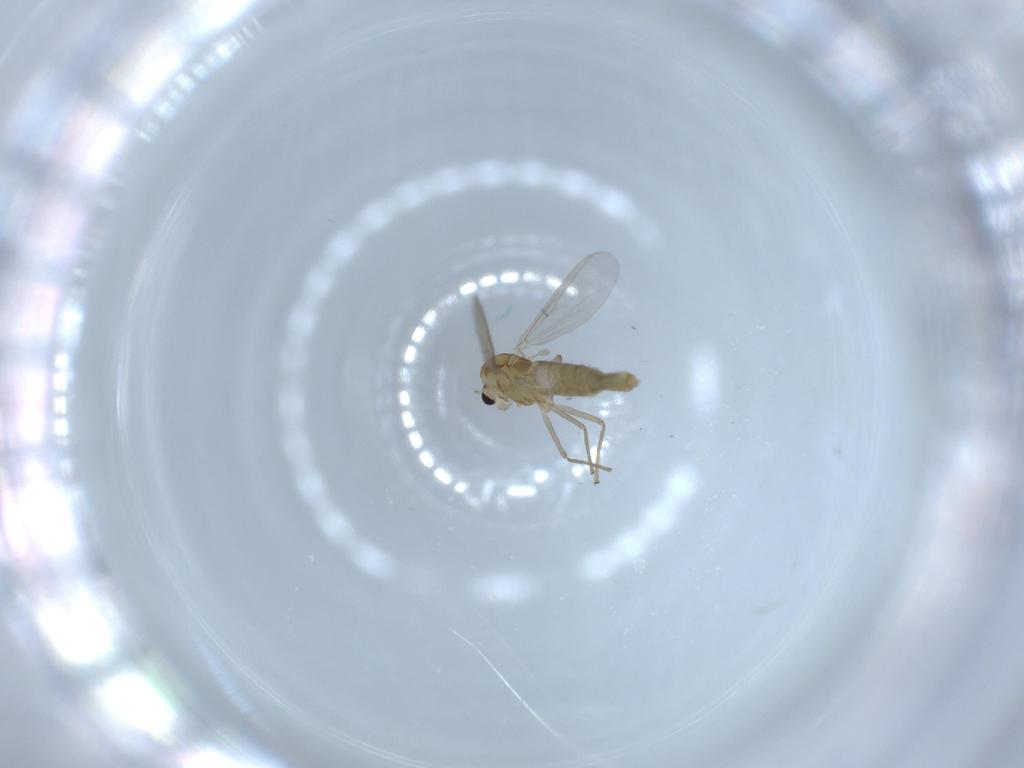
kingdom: Animalia
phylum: Arthropoda
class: Insecta
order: Diptera
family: Chironomidae
